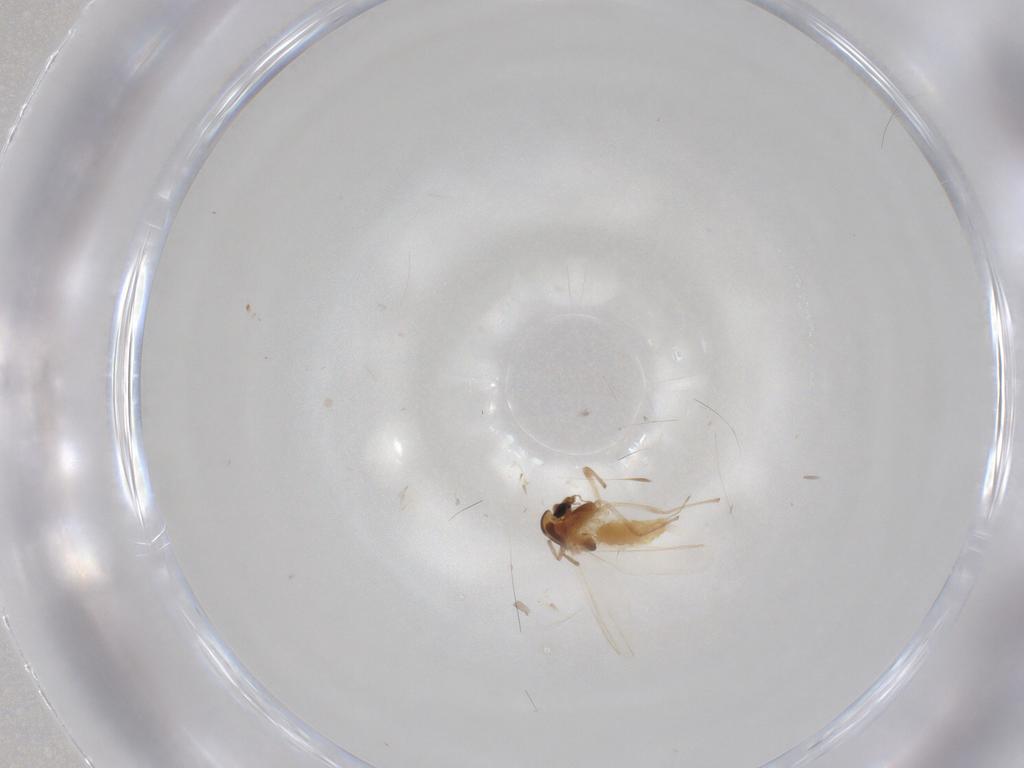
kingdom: Animalia
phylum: Arthropoda
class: Insecta
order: Diptera
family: Chironomidae
